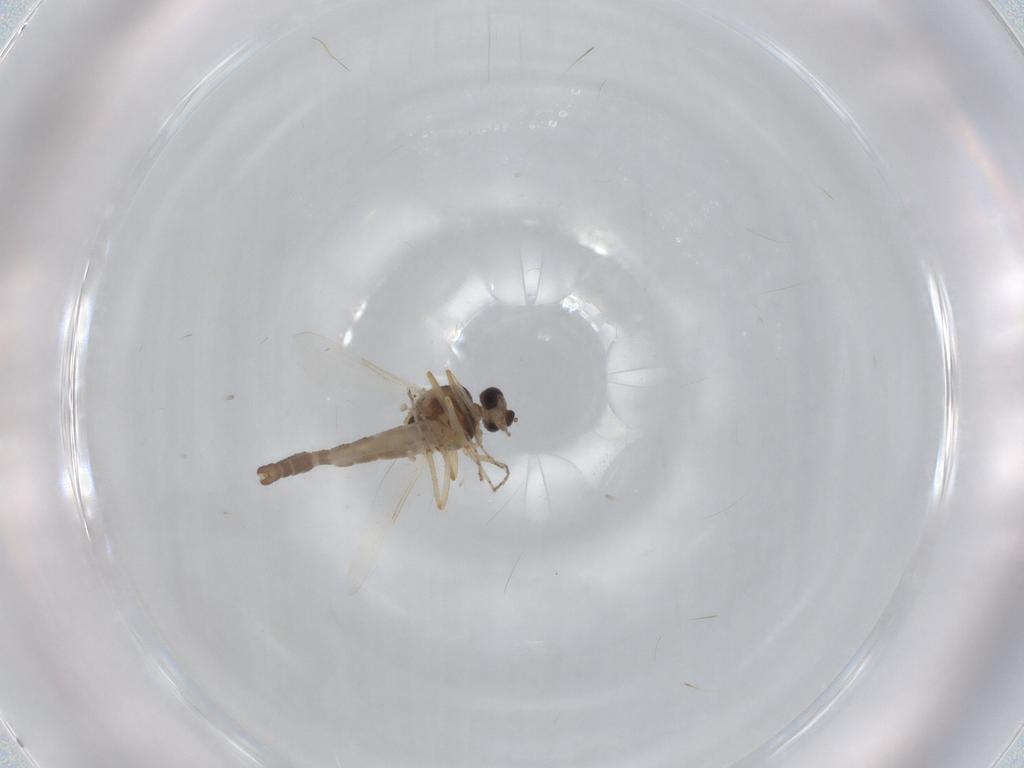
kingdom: Animalia
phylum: Arthropoda
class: Insecta
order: Diptera
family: Ceratopogonidae
